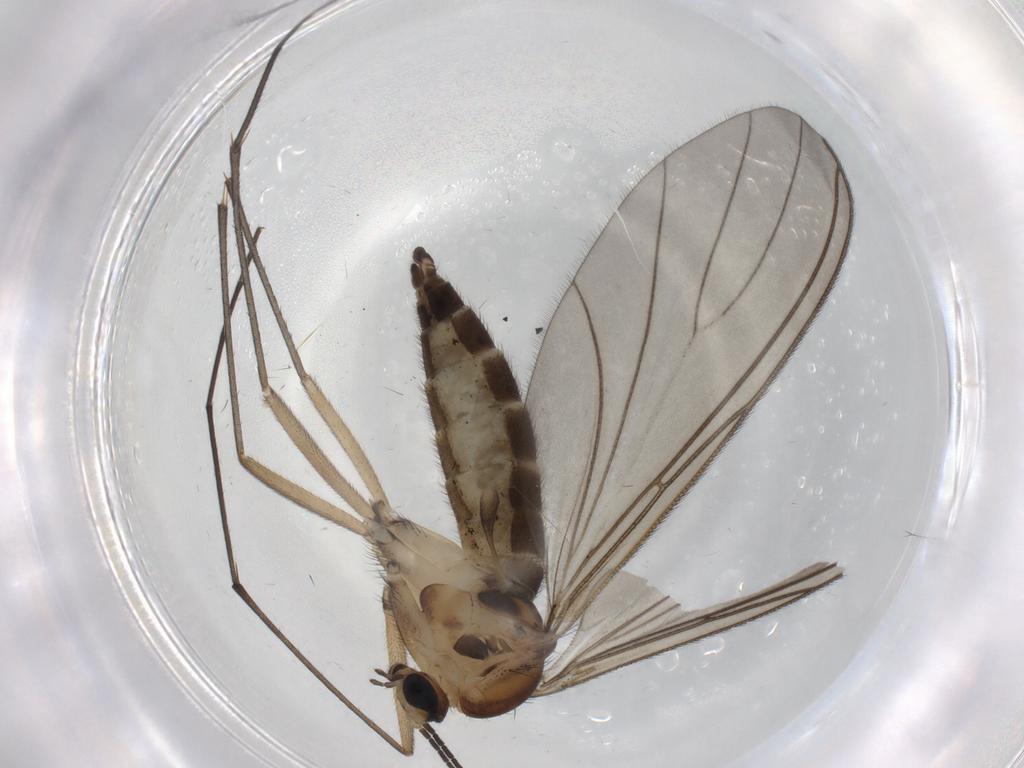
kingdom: Animalia
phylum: Arthropoda
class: Insecta
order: Diptera
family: Sciaridae
